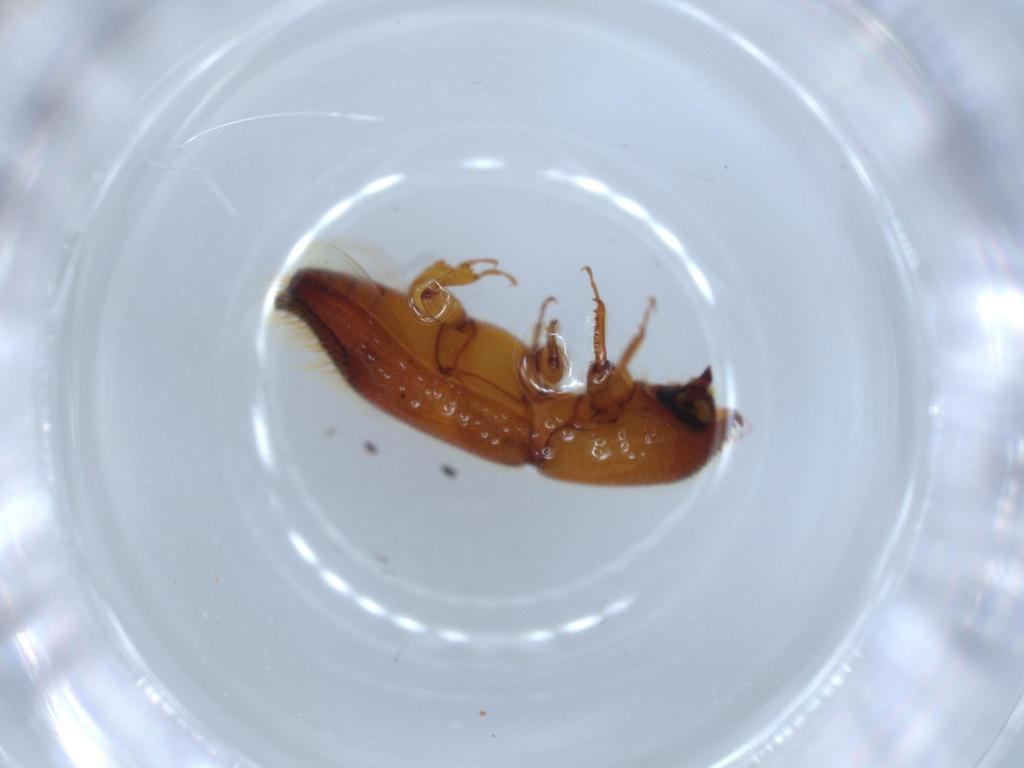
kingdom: Animalia
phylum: Arthropoda
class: Insecta
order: Coleoptera
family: Curculionidae
